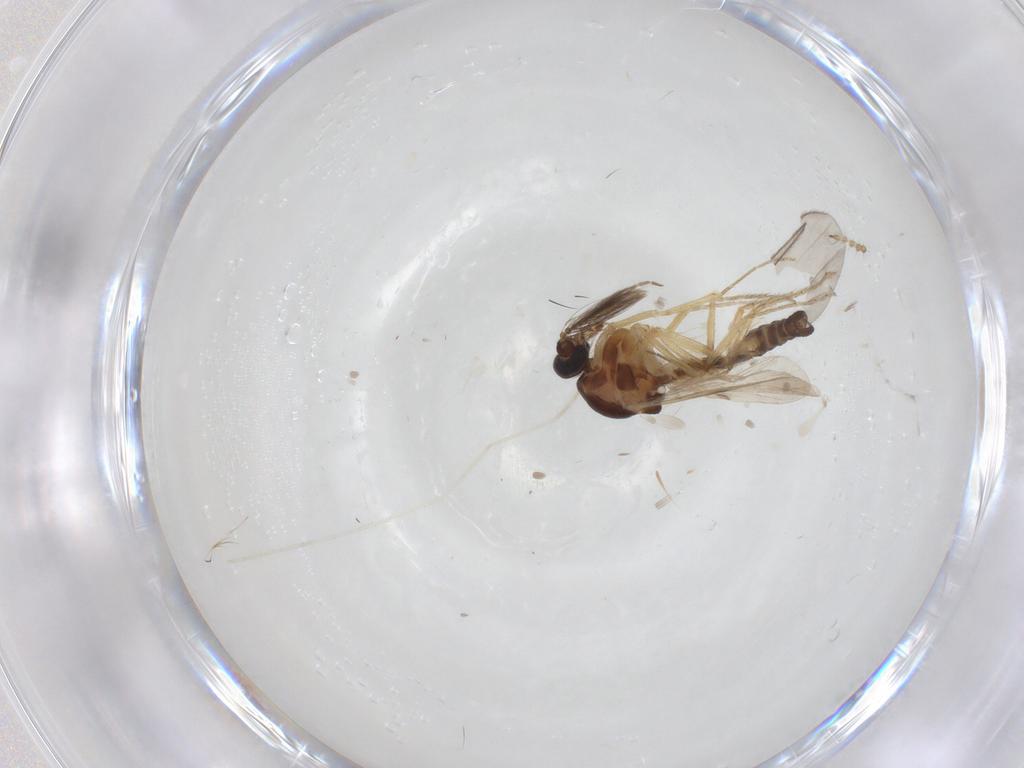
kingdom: Animalia
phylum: Arthropoda
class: Insecta
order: Diptera
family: Ceratopogonidae
